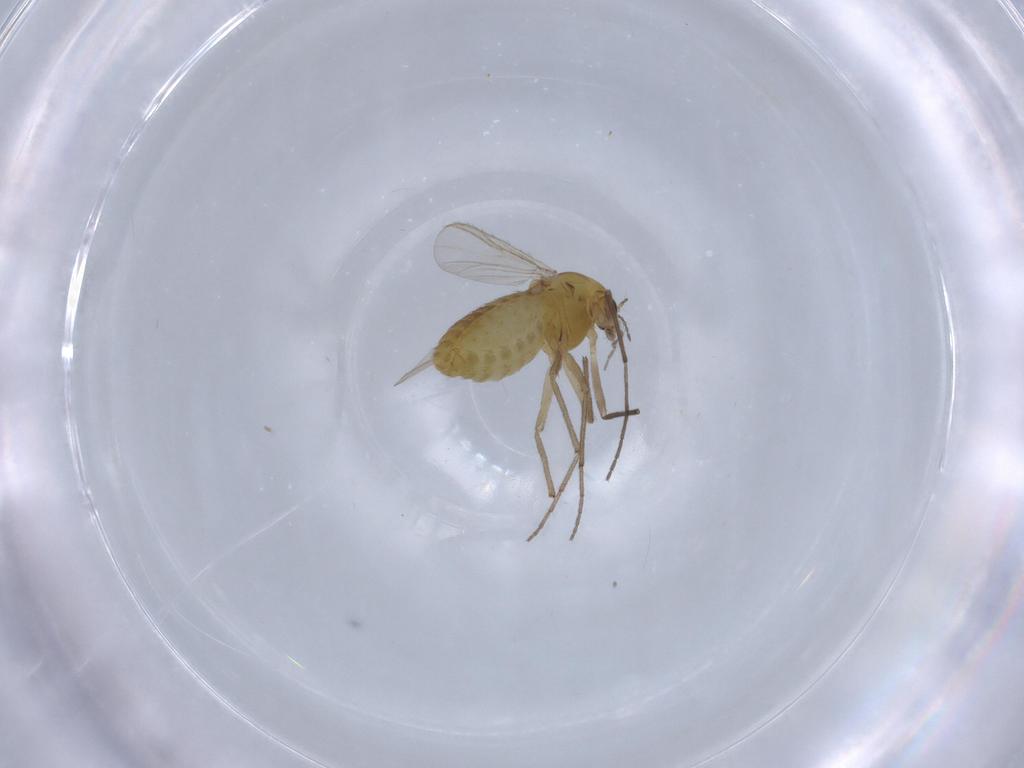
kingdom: Animalia
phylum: Arthropoda
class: Insecta
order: Diptera
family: Chironomidae
